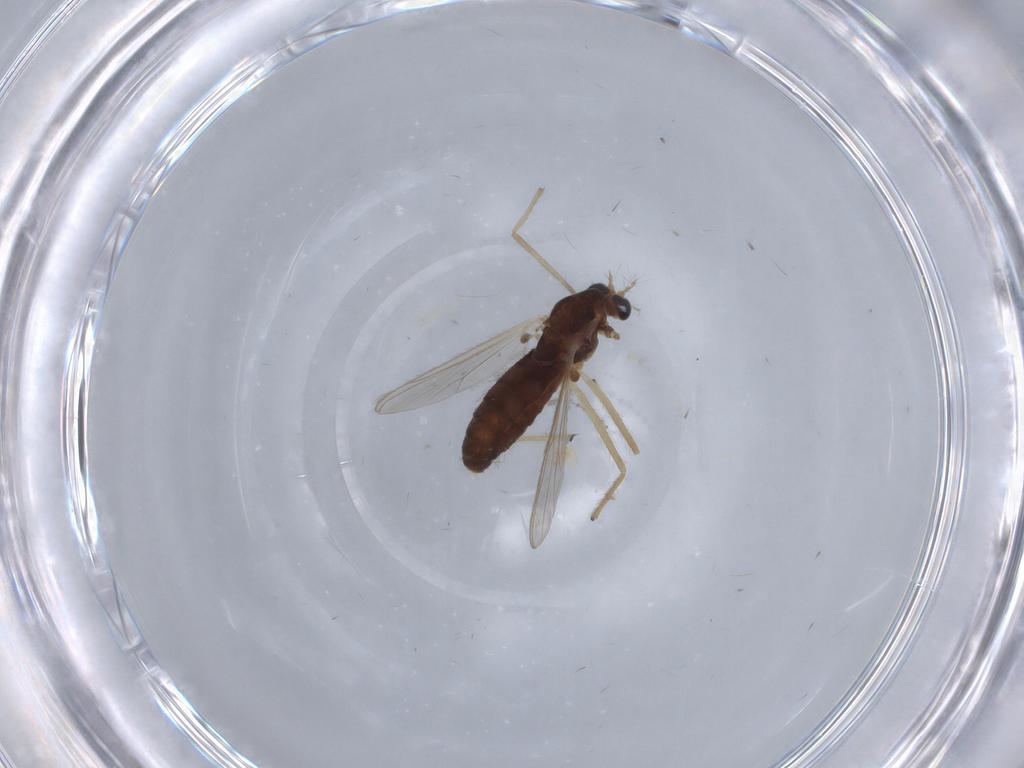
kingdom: Animalia
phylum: Arthropoda
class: Insecta
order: Diptera
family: Chironomidae
